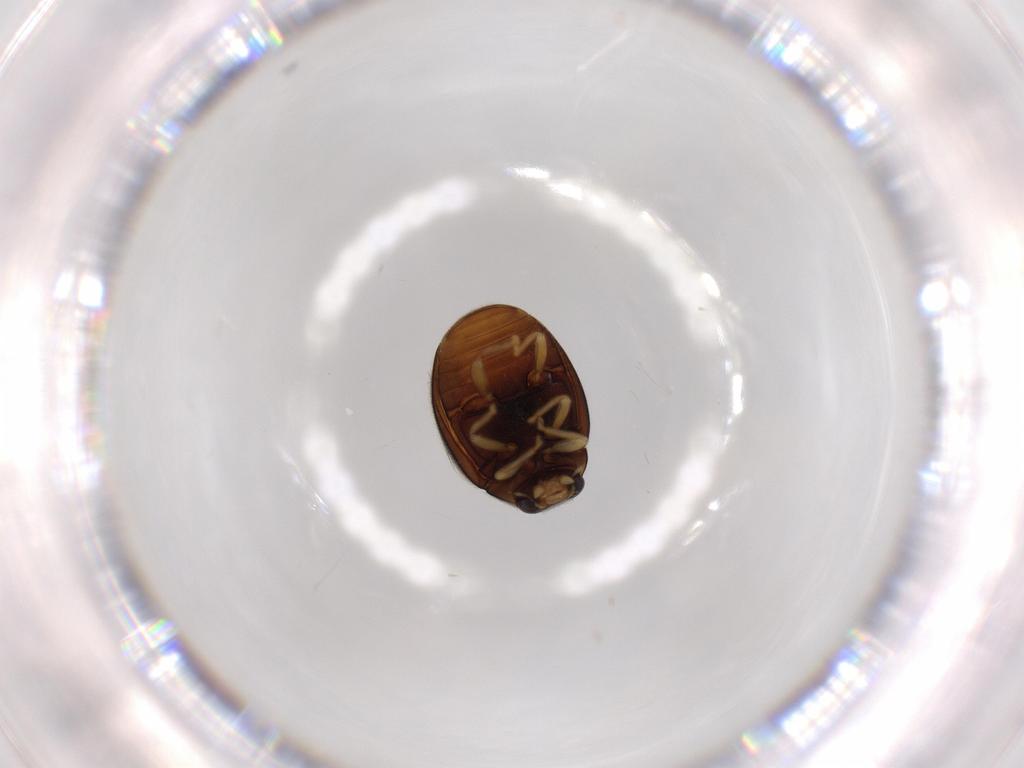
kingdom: Animalia
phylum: Arthropoda
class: Insecta
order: Coleoptera
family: Coccinellidae
